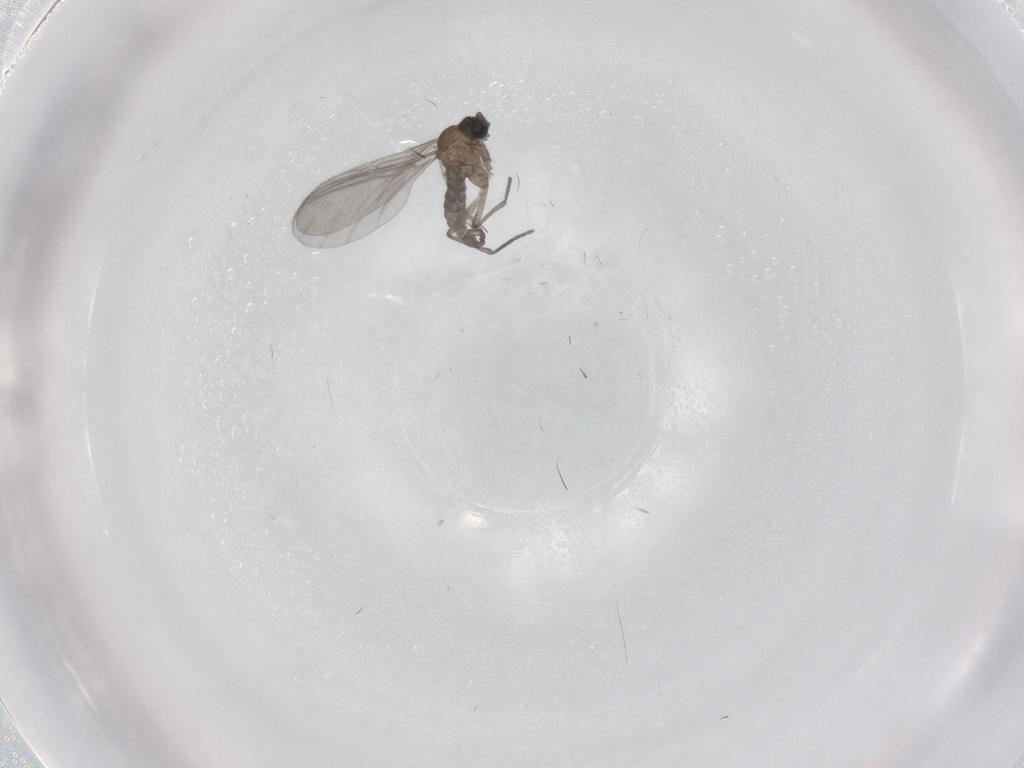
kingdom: Animalia
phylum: Arthropoda
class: Insecta
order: Diptera
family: Sciaridae
